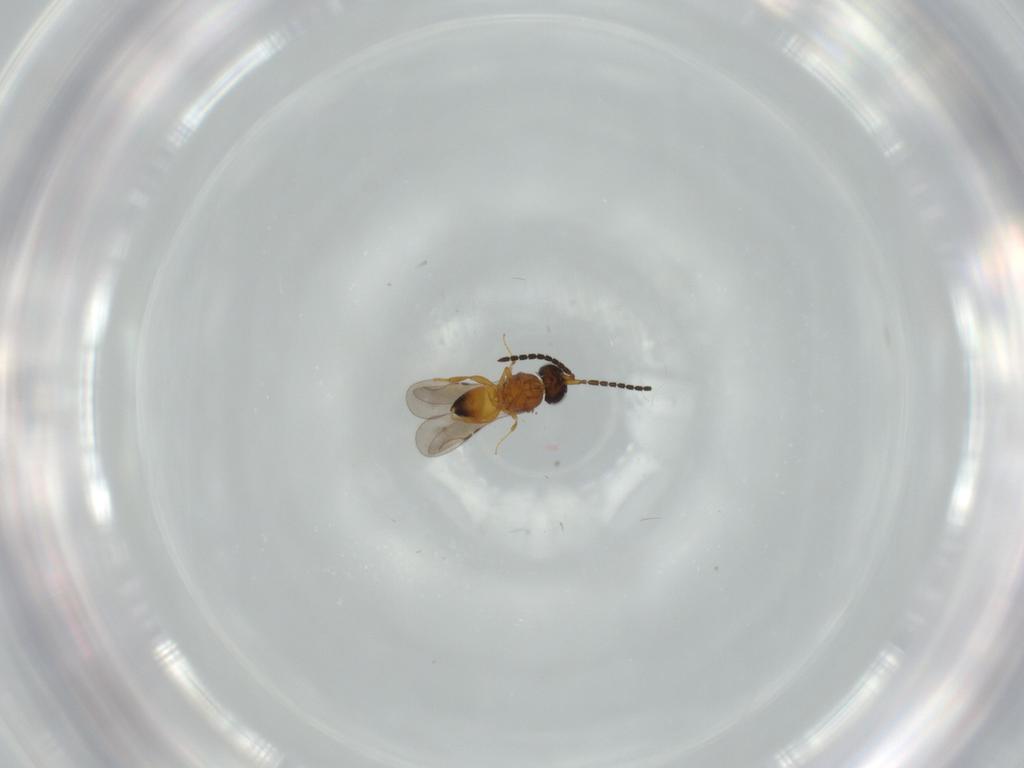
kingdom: Animalia
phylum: Arthropoda
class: Insecta
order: Hymenoptera
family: Ceraphronidae
